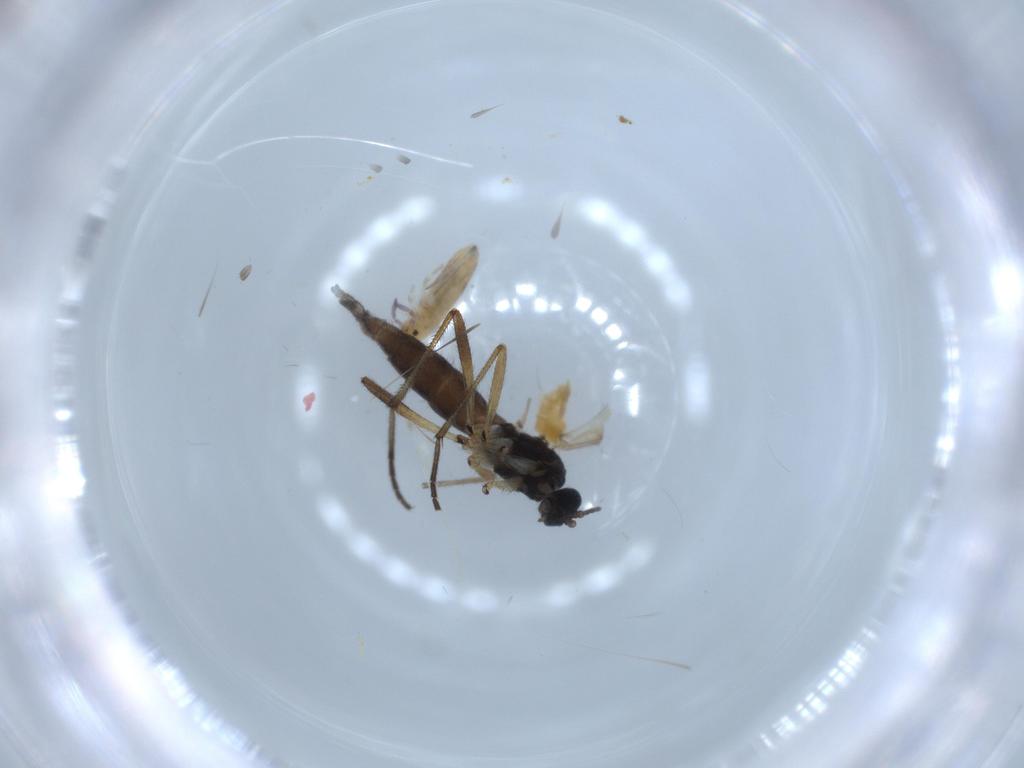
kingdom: Animalia
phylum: Arthropoda
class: Insecta
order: Diptera
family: Sciaridae
